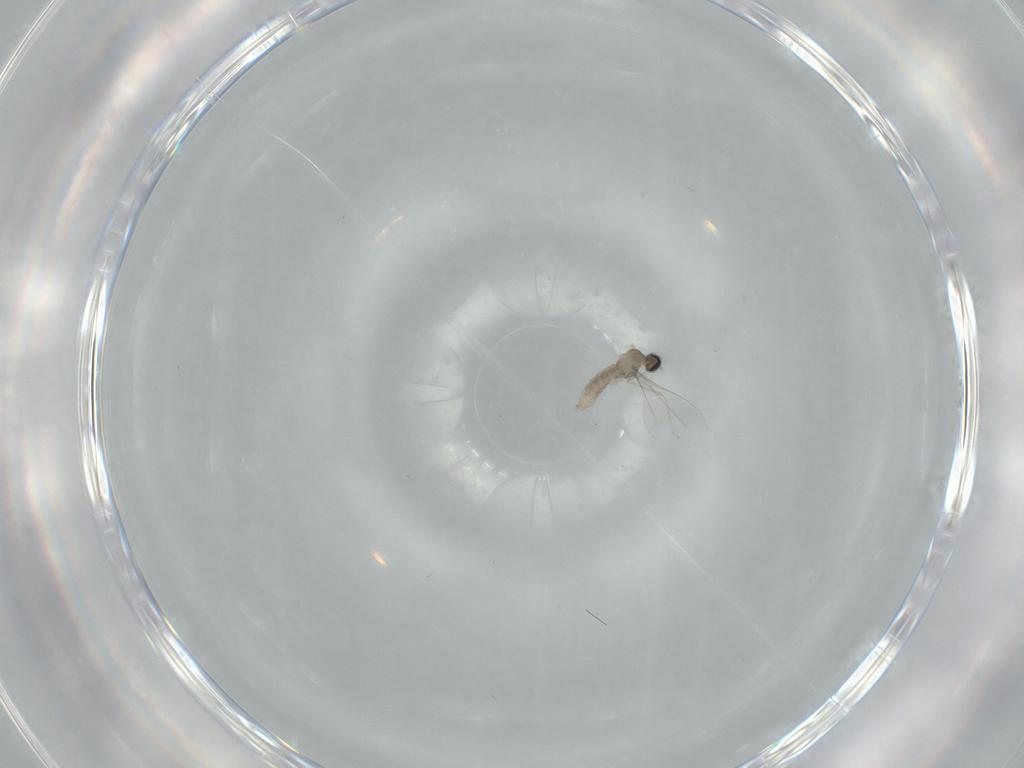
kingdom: Animalia
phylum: Arthropoda
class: Insecta
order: Diptera
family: Cecidomyiidae
